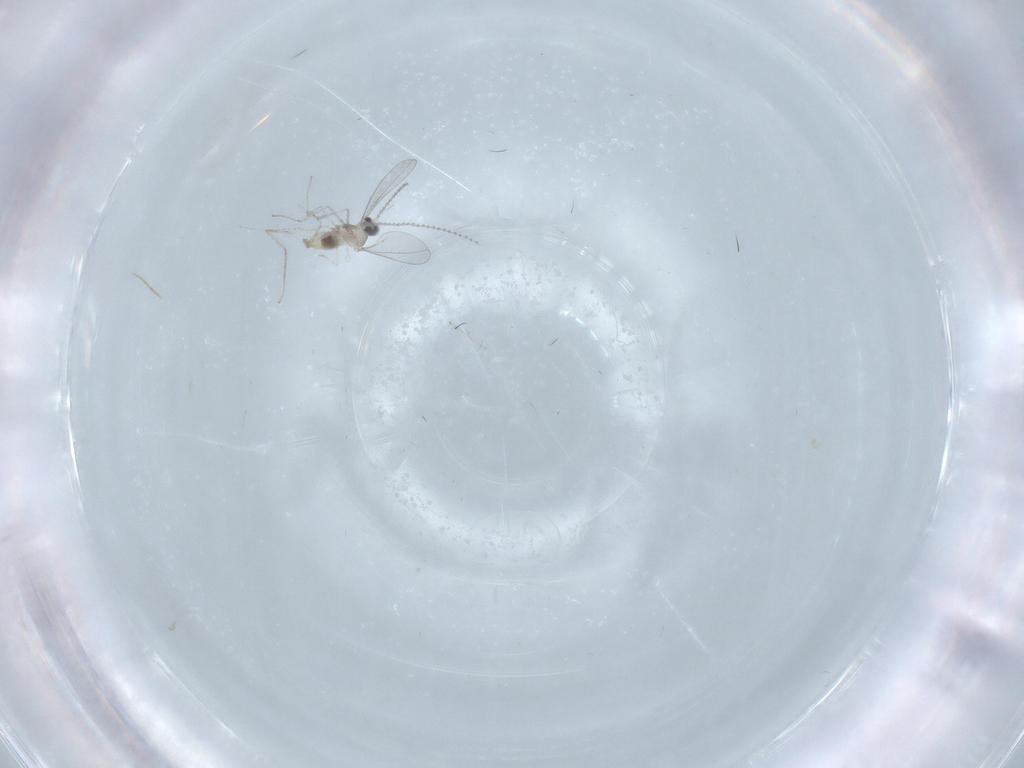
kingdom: Animalia
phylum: Arthropoda
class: Insecta
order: Diptera
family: Cecidomyiidae
